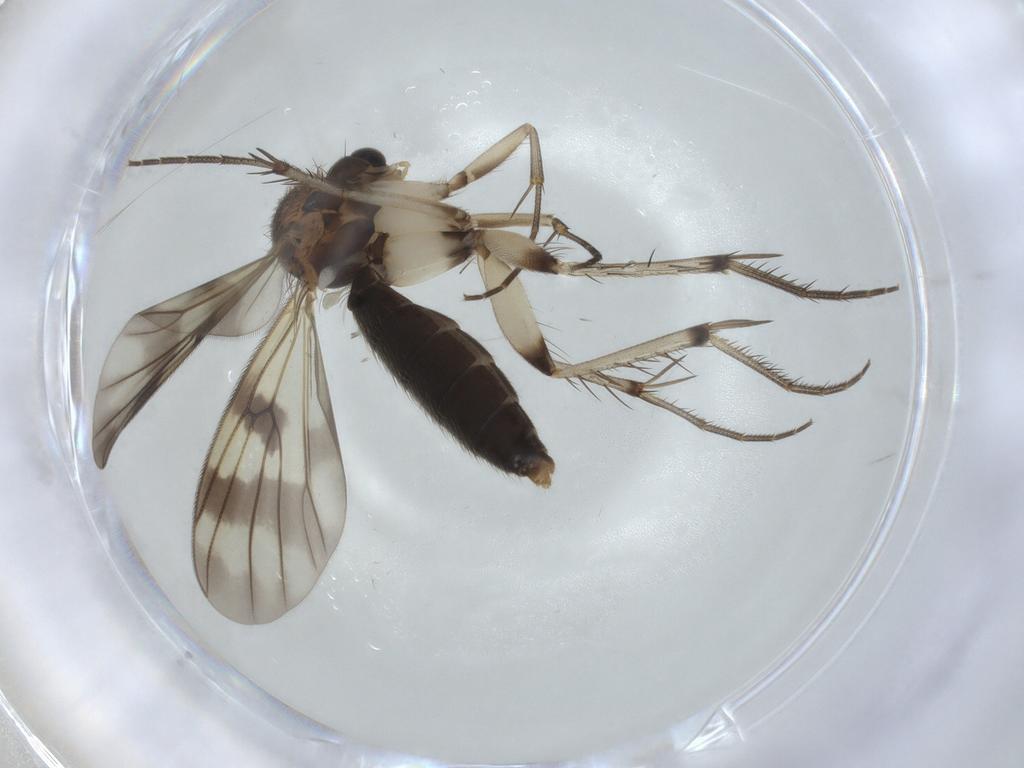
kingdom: Animalia
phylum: Arthropoda
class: Insecta
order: Diptera
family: Mycetophilidae
